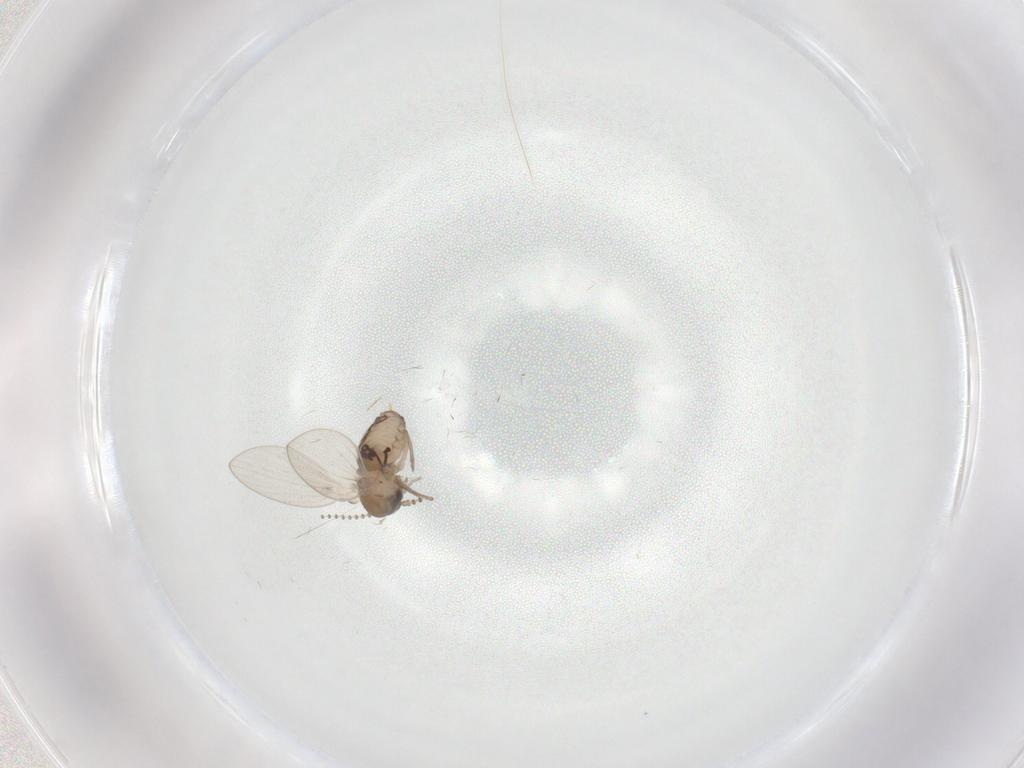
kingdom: Animalia
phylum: Arthropoda
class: Insecta
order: Diptera
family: Psychodidae
